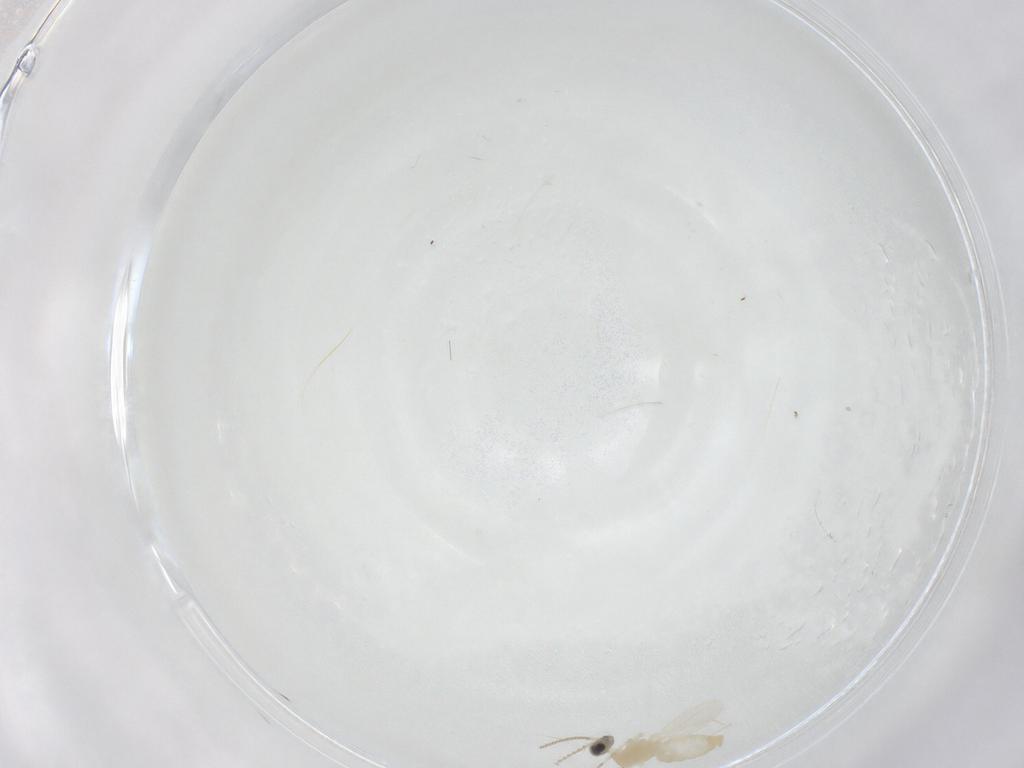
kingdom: Animalia
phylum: Arthropoda
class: Insecta
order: Diptera
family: Cecidomyiidae
